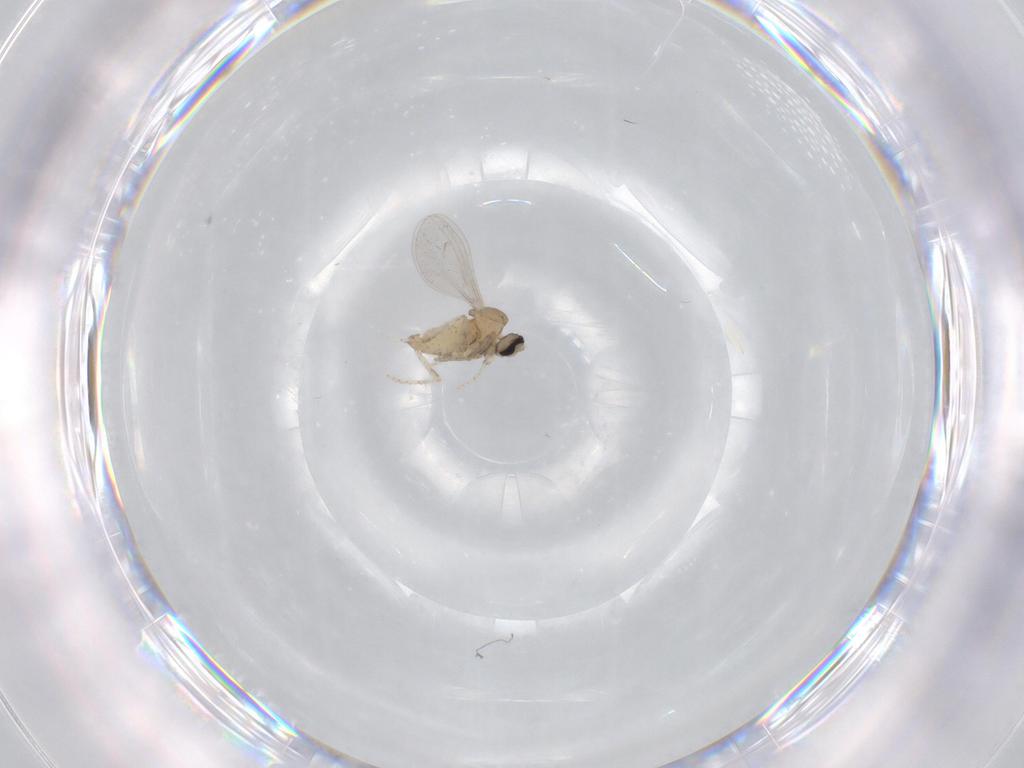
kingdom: Animalia
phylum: Arthropoda
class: Insecta
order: Diptera
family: Cecidomyiidae
